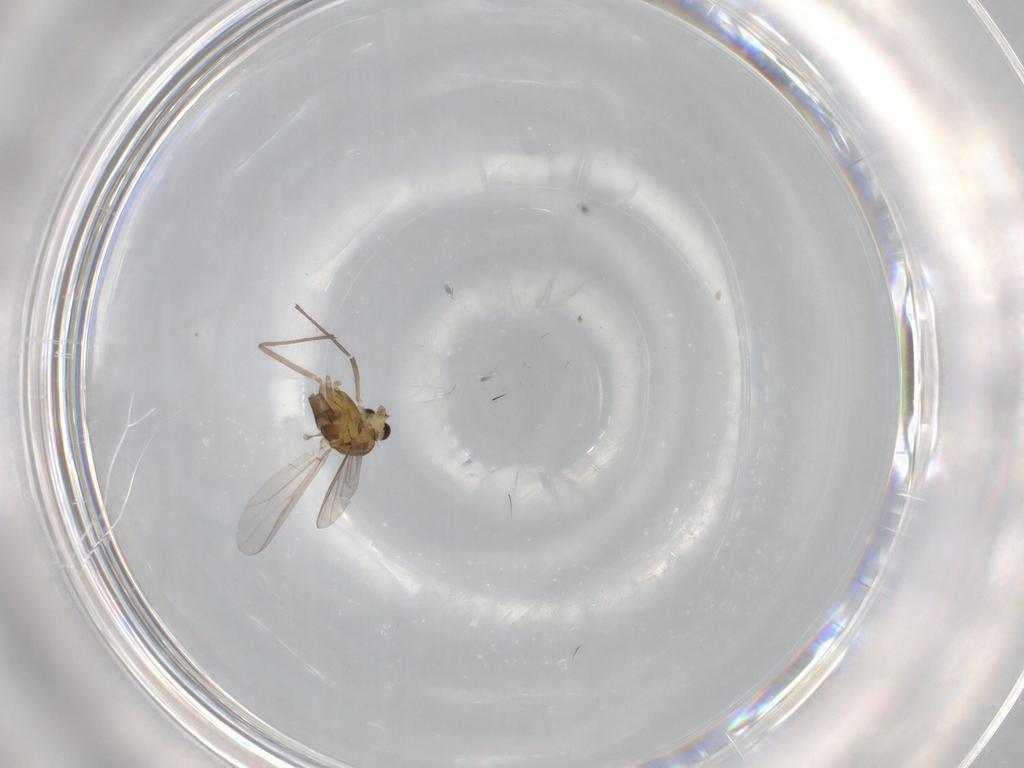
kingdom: Animalia
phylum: Arthropoda
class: Insecta
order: Diptera
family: Chironomidae
